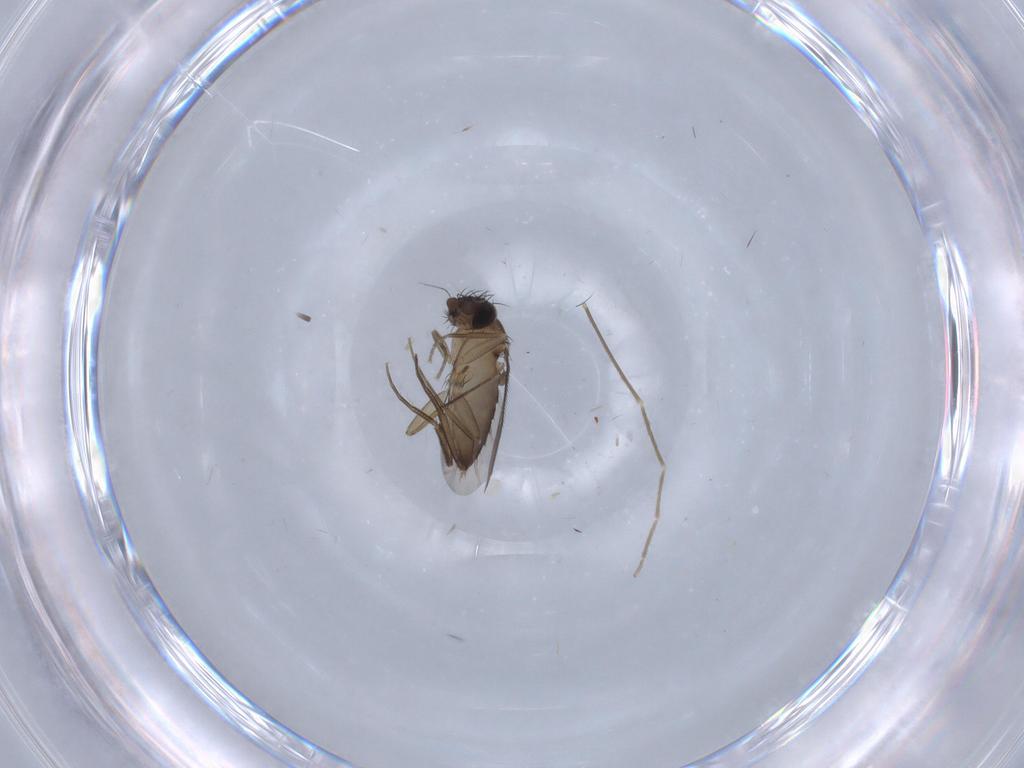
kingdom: Animalia
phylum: Arthropoda
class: Insecta
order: Diptera
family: Phoridae
